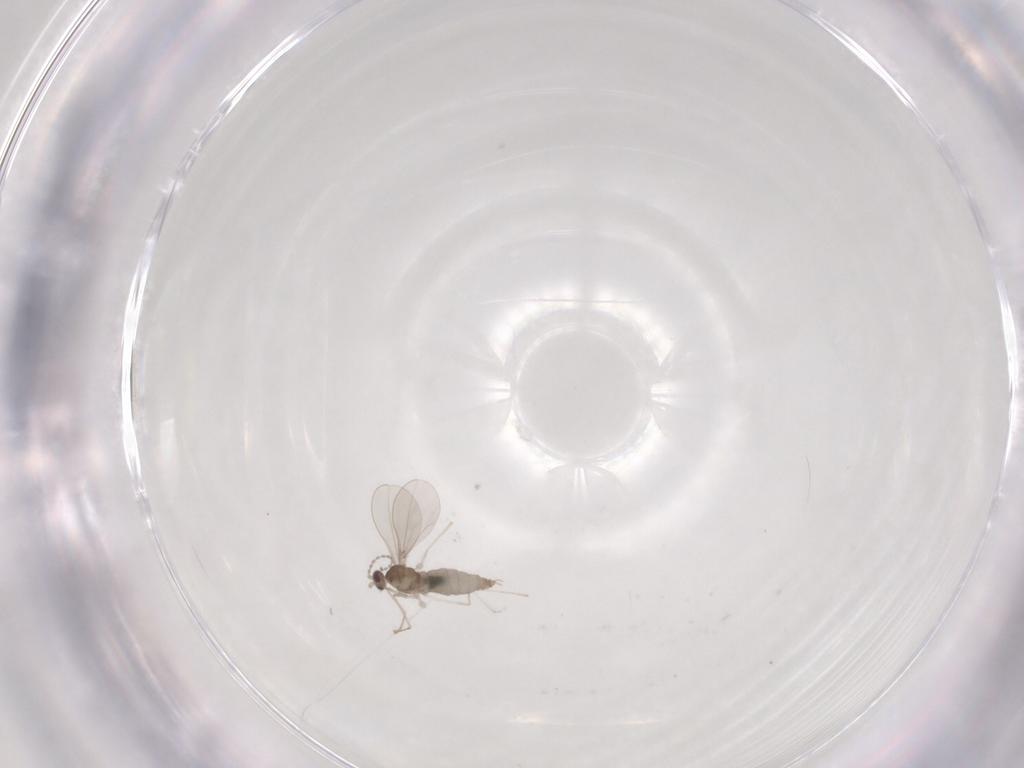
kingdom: Animalia
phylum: Arthropoda
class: Insecta
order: Diptera
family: Cecidomyiidae
